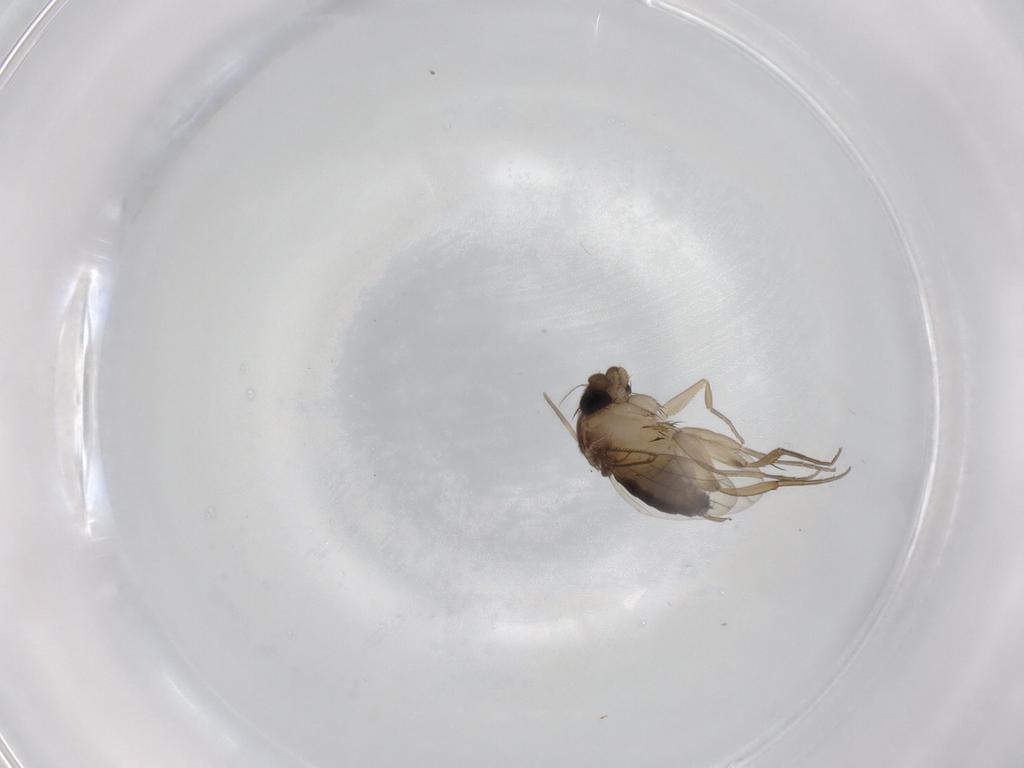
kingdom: Animalia
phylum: Arthropoda
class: Insecta
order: Diptera
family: Phoridae
